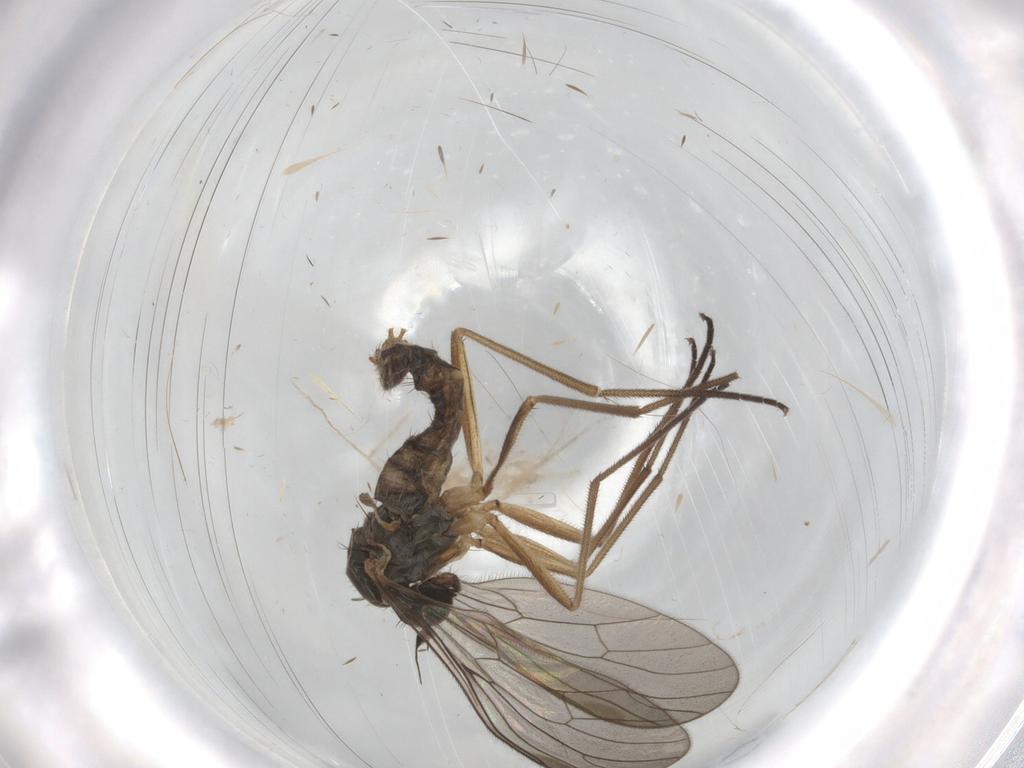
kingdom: Animalia
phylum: Arthropoda
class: Insecta
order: Diptera
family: Empididae
